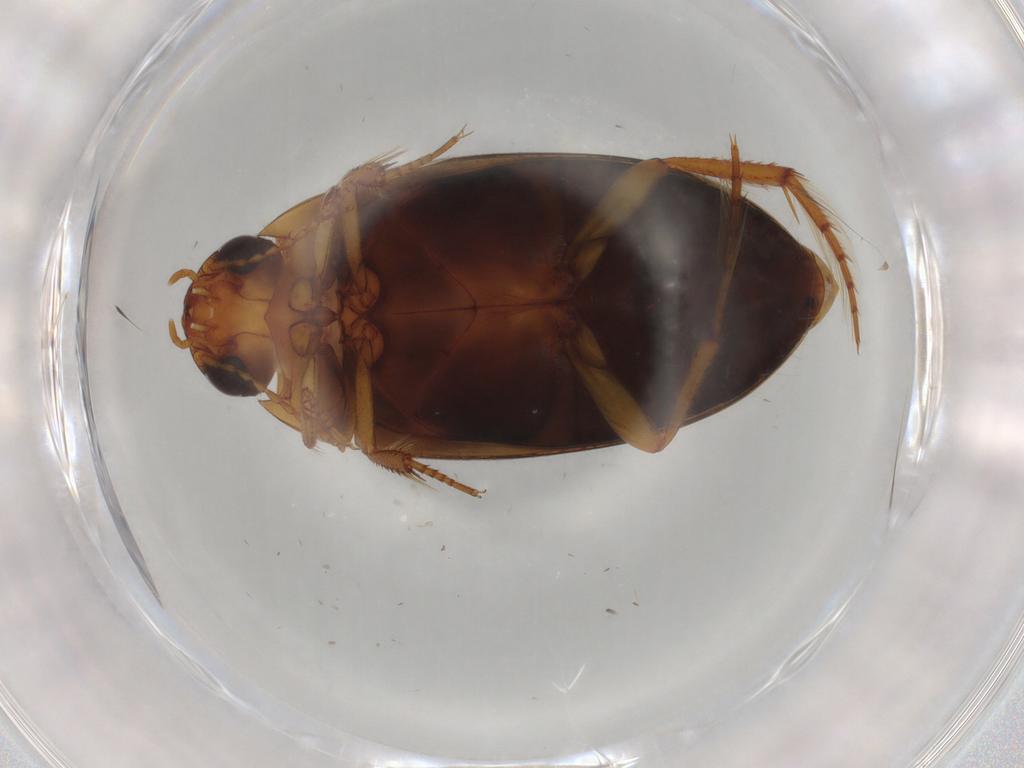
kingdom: Animalia
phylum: Arthropoda
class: Insecta
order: Coleoptera
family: Dytiscidae
